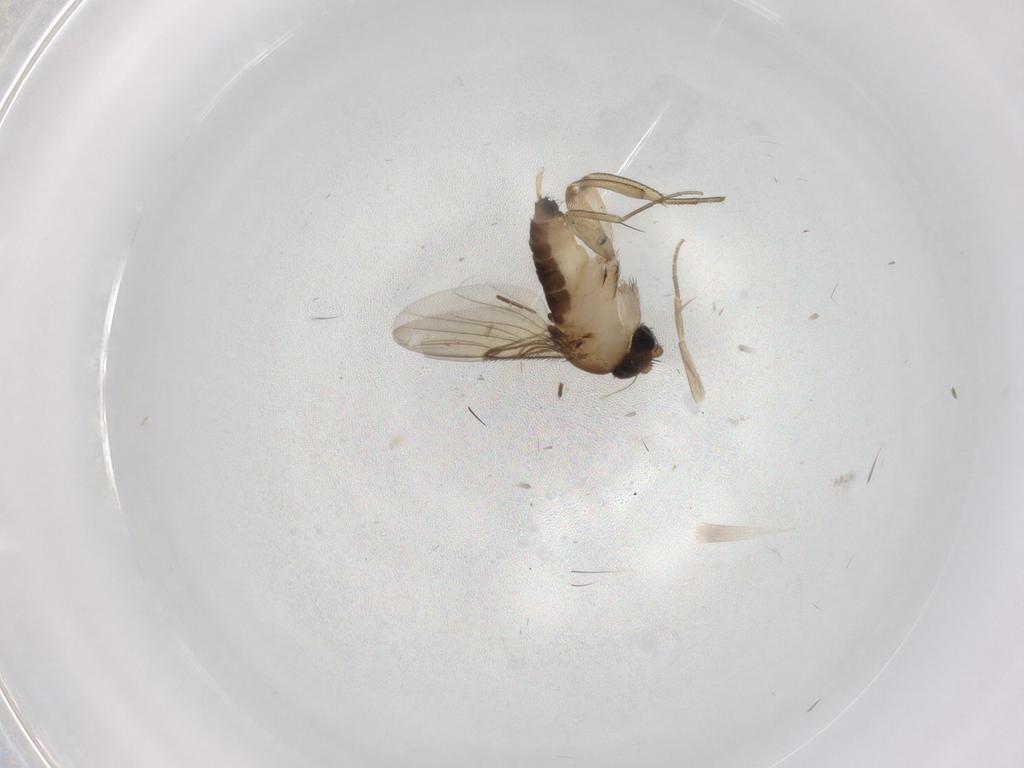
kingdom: Animalia
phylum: Arthropoda
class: Insecta
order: Diptera
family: Phoridae
